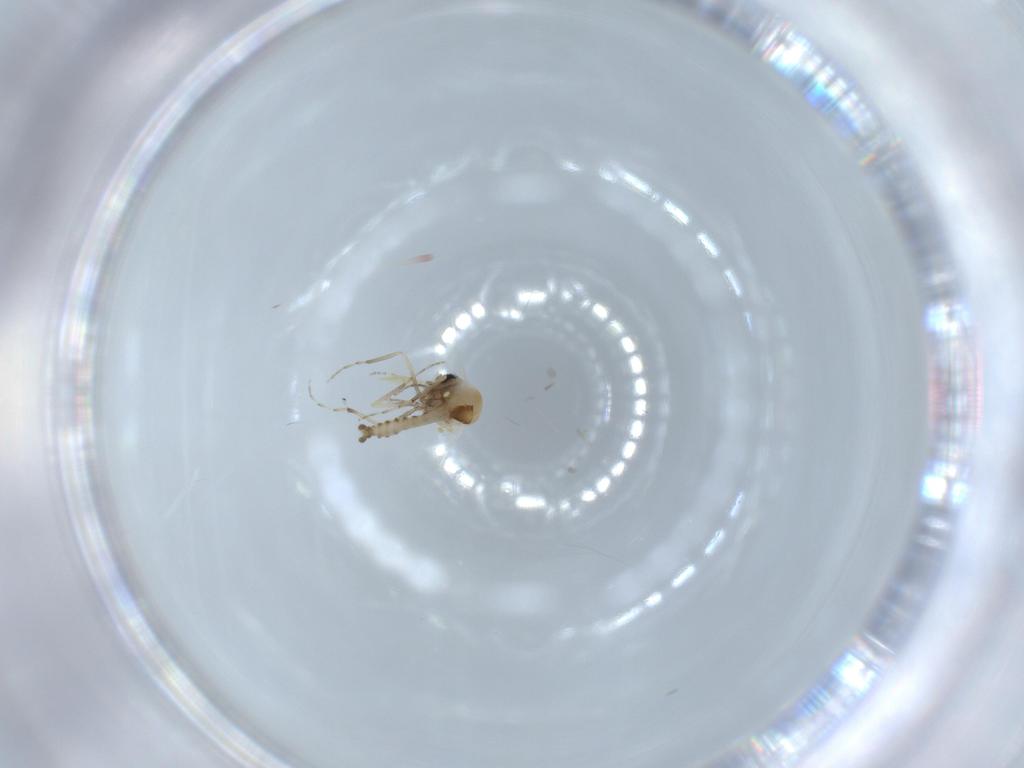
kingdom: Animalia
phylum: Arthropoda
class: Insecta
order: Diptera
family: Ceratopogonidae
